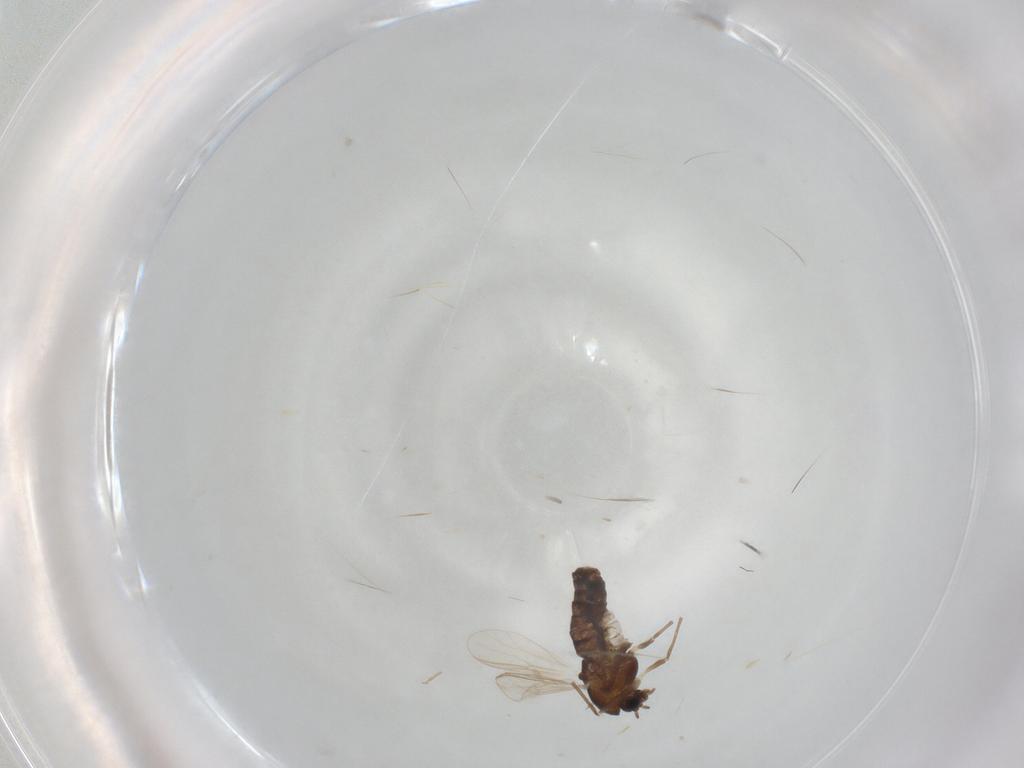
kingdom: Animalia
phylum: Arthropoda
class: Insecta
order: Diptera
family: Chironomidae
